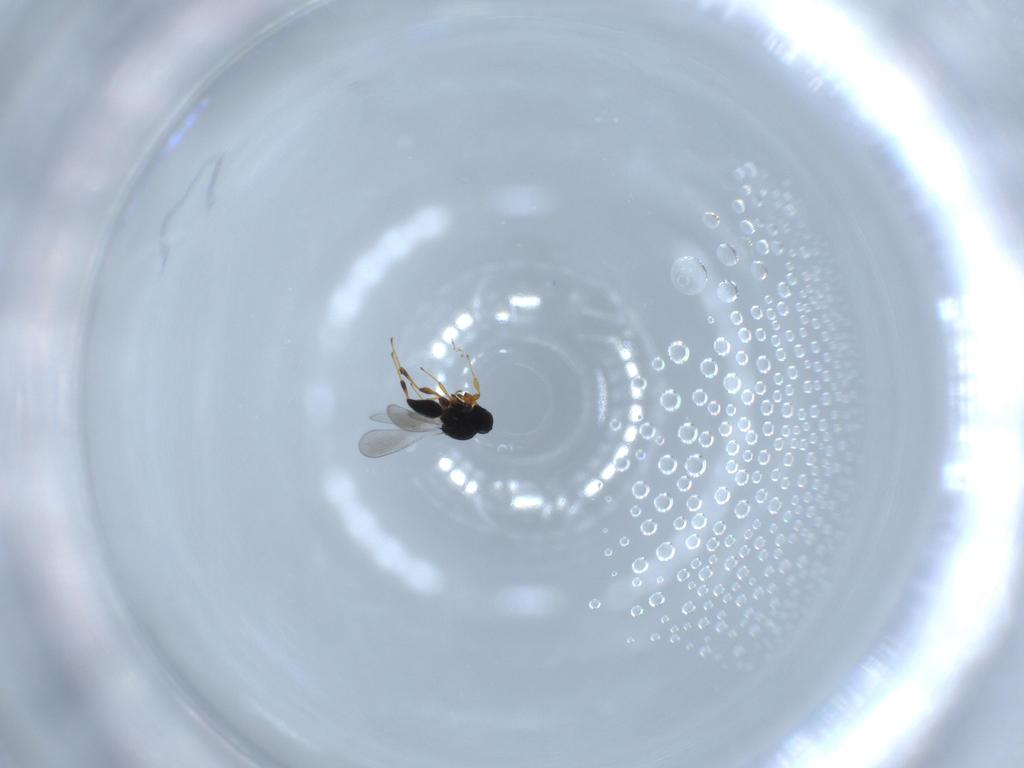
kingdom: Animalia
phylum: Arthropoda
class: Insecta
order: Hymenoptera
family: Platygastridae
